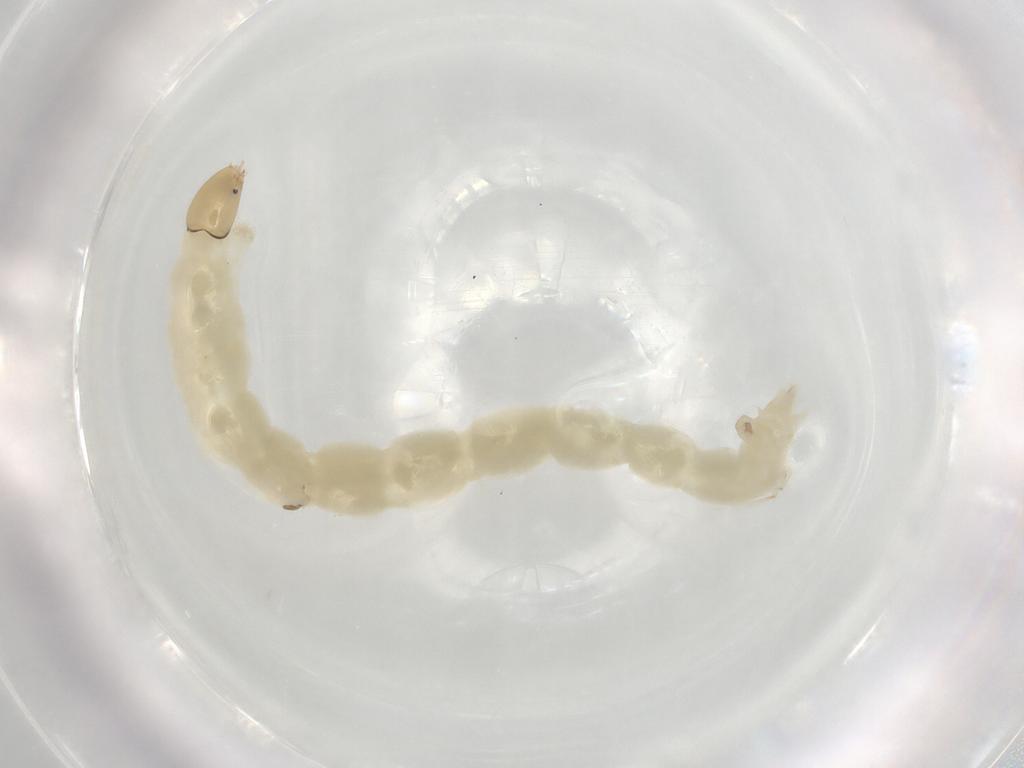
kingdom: Animalia
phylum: Arthropoda
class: Insecta
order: Diptera
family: Chironomidae
